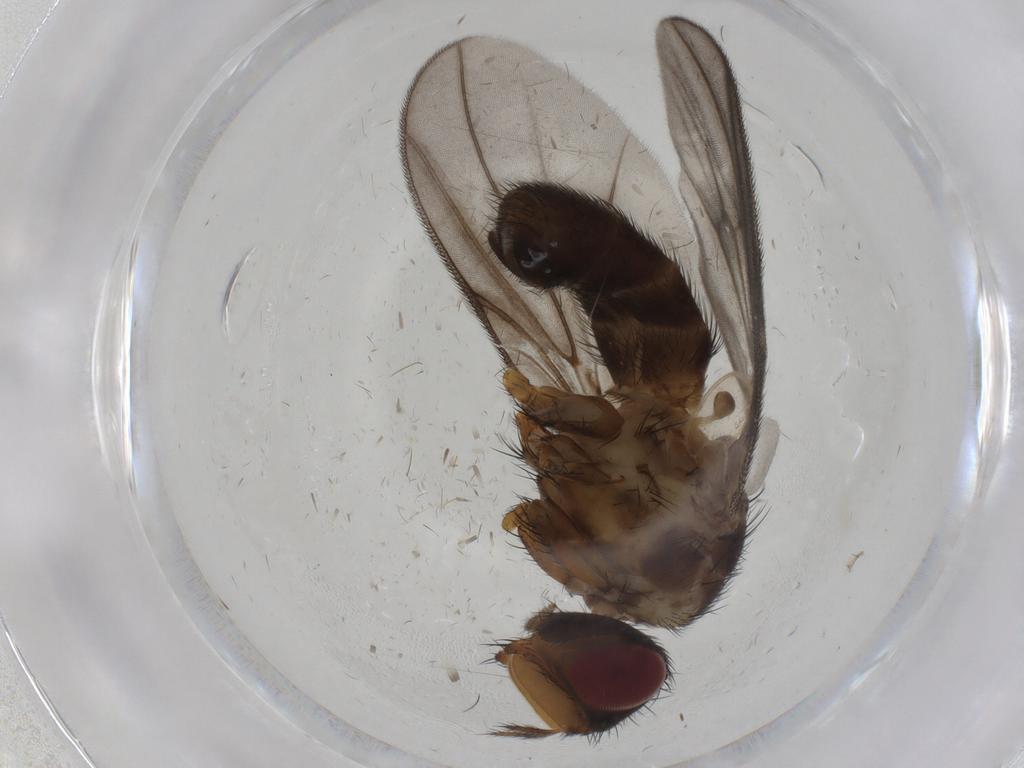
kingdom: Animalia
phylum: Arthropoda
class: Insecta
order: Diptera
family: Calliphoridae
